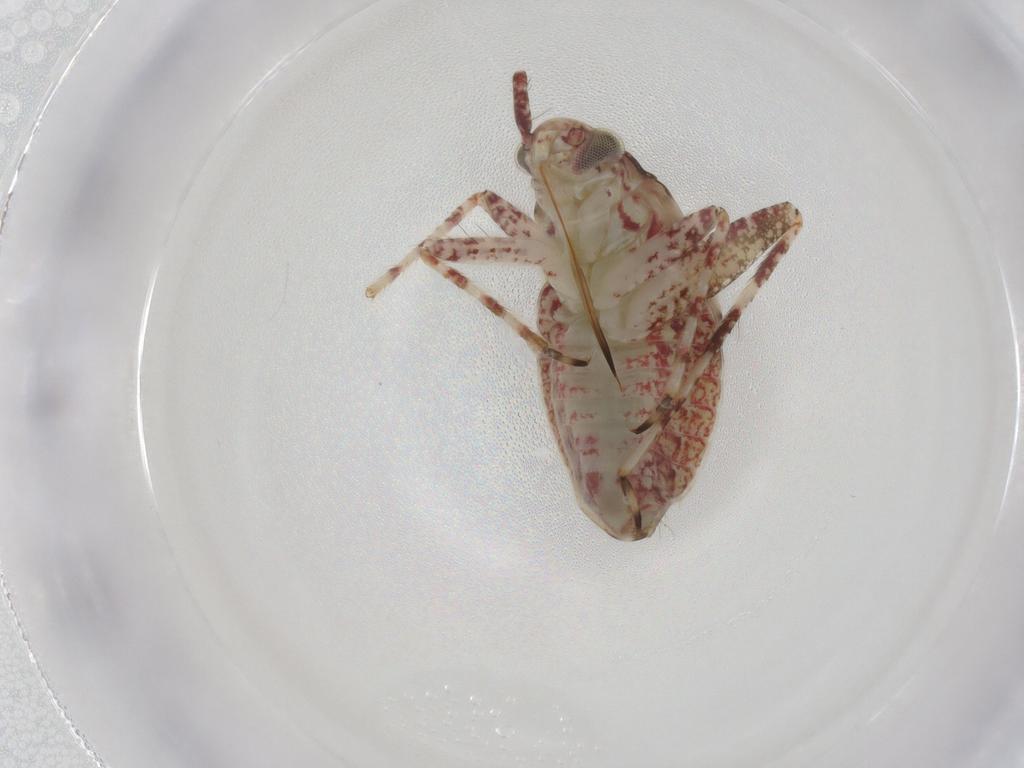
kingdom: Animalia
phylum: Arthropoda
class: Insecta
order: Hemiptera
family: Miridae
